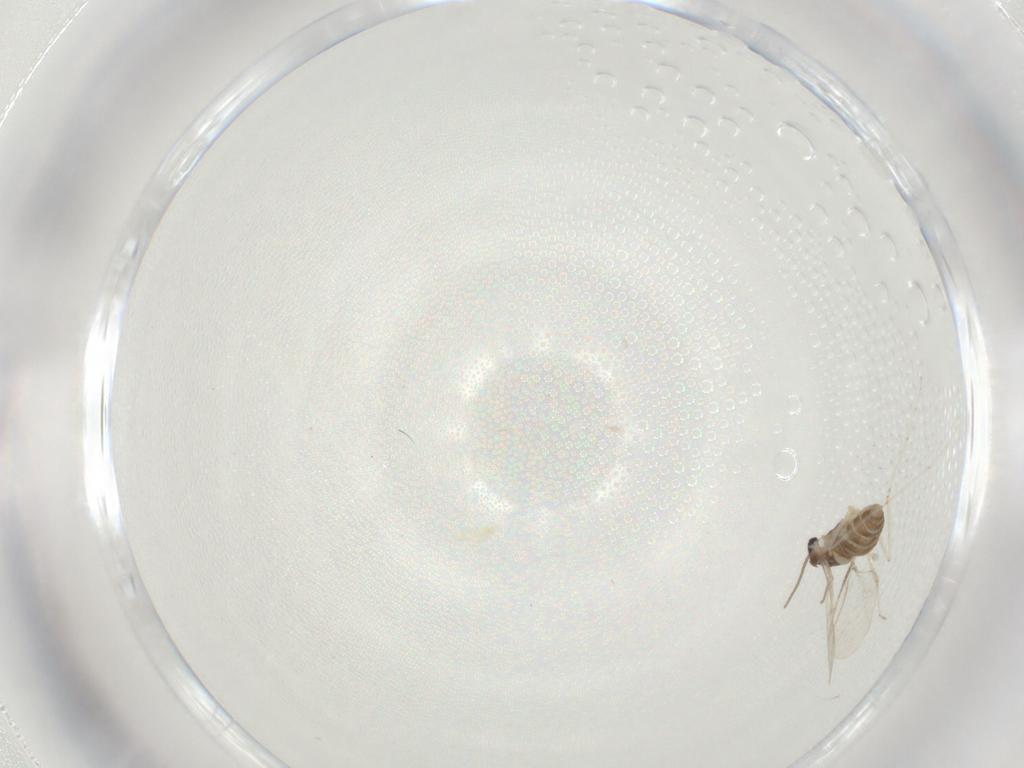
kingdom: Animalia
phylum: Arthropoda
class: Insecta
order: Diptera
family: Cecidomyiidae
